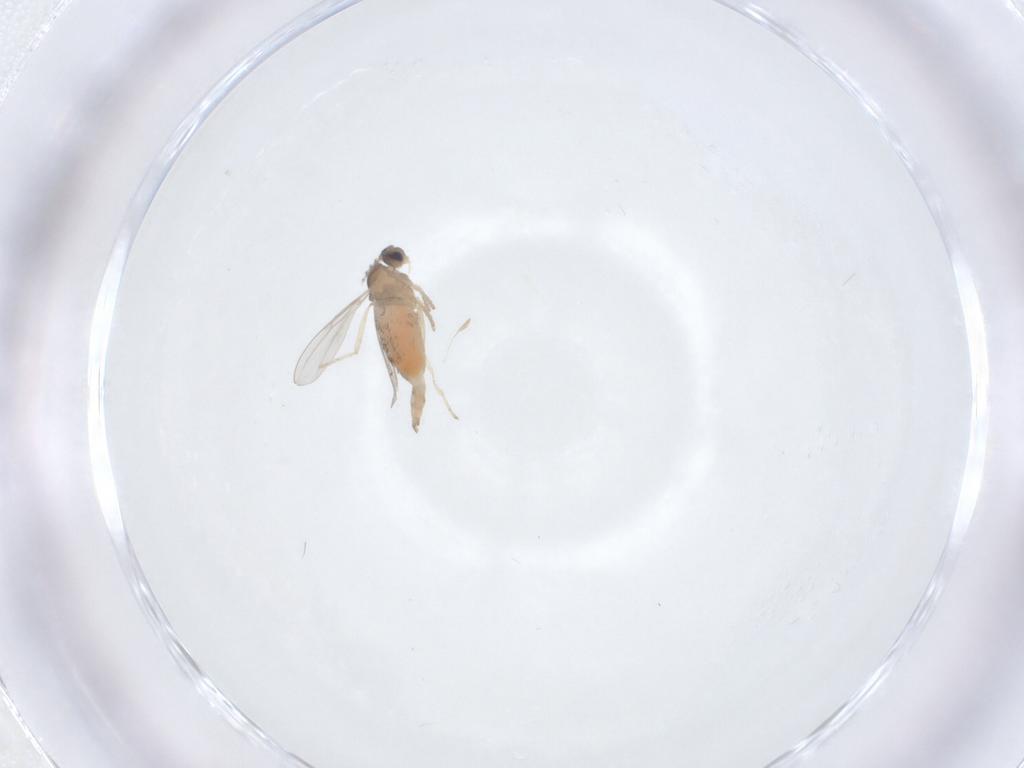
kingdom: Animalia
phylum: Arthropoda
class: Insecta
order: Diptera
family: Cecidomyiidae
